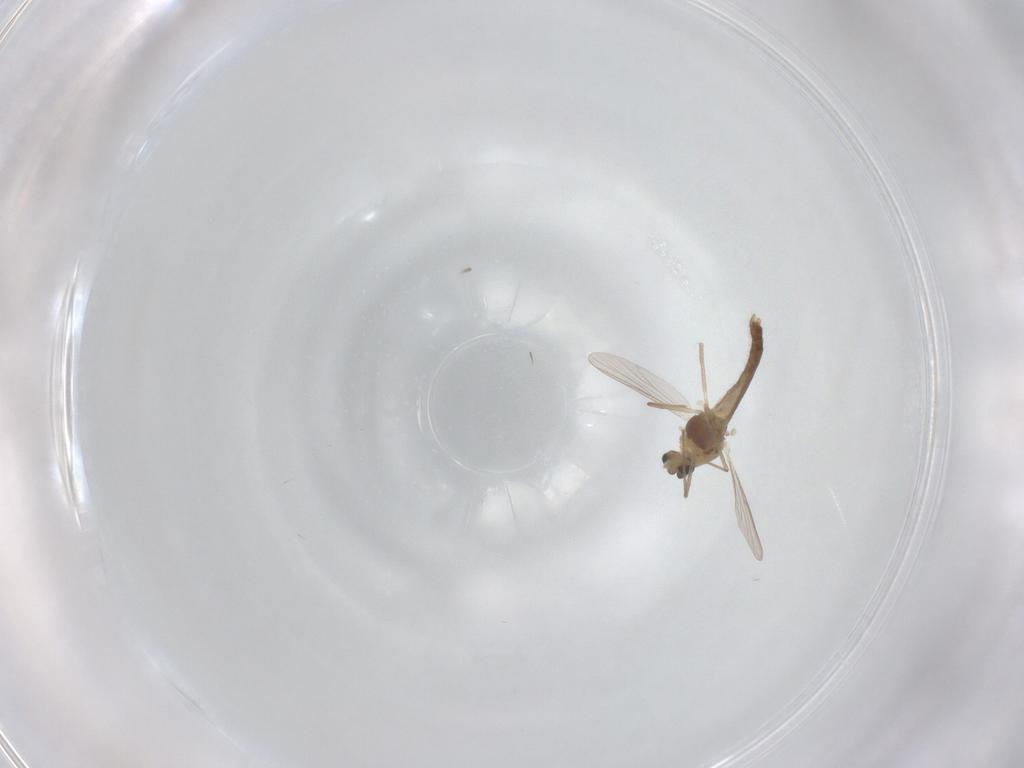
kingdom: Animalia
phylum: Arthropoda
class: Insecta
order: Diptera
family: Chironomidae
